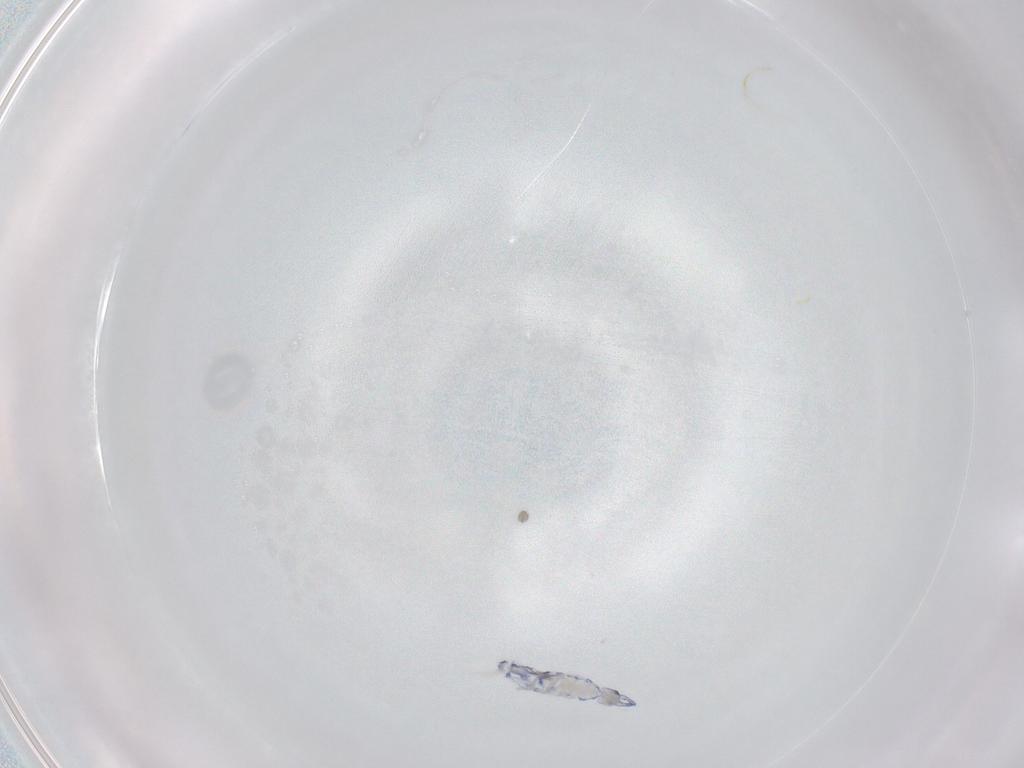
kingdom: Animalia
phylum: Arthropoda
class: Collembola
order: Entomobryomorpha
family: Entomobryidae
